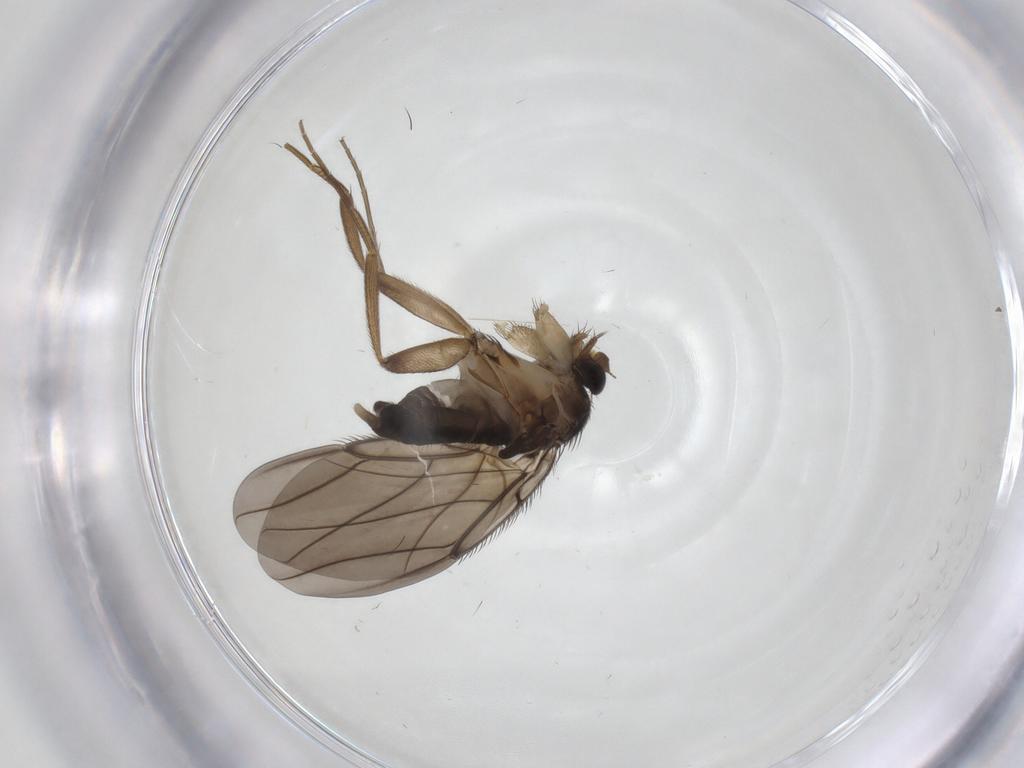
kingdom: Animalia
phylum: Arthropoda
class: Insecta
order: Diptera
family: Phoridae
